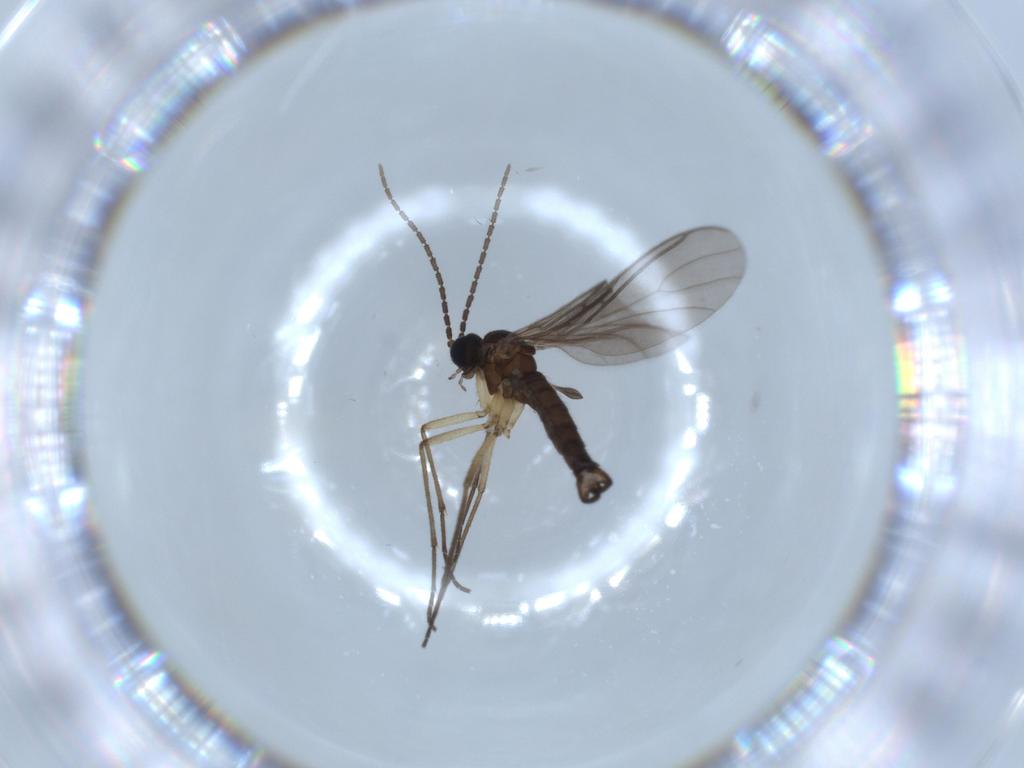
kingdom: Animalia
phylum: Arthropoda
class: Insecta
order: Diptera
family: Sciaridae
